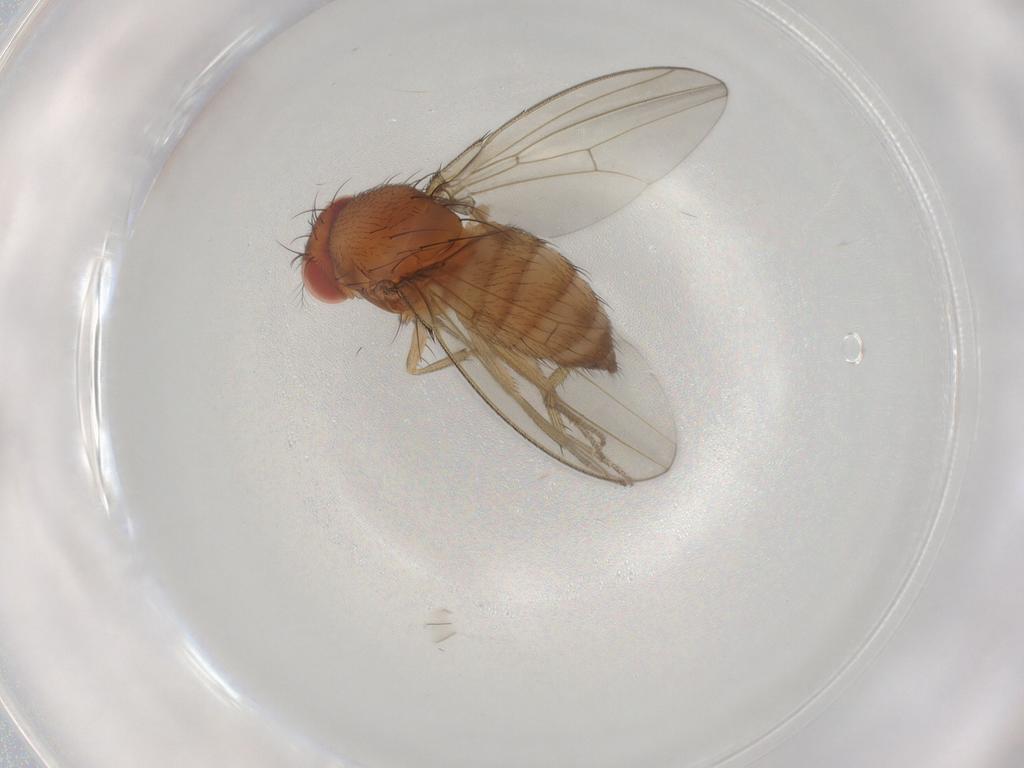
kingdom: Animalia
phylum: Arthropoda
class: Insecta
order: Diptera
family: Drosophilidae
